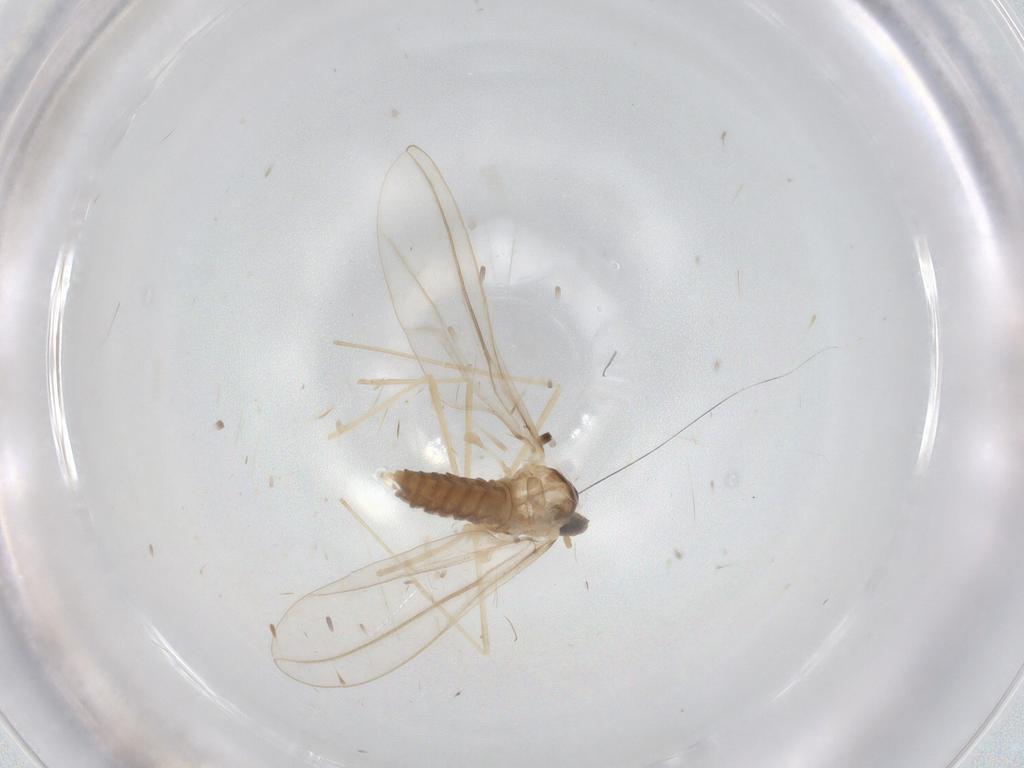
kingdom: Animalia
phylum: Arthropoda
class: Insecta
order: Diptera
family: Cecidomyiidae
